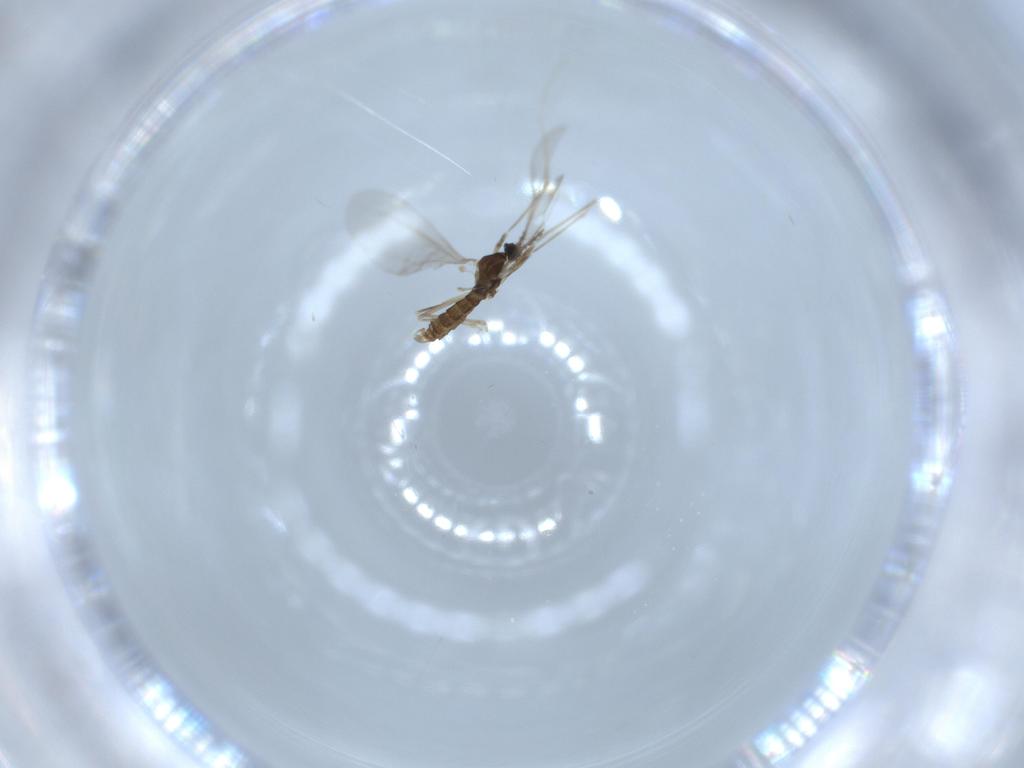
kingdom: Animalia
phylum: Arthropoda
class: Insecta
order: Diptera
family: Cecidomyiidae
